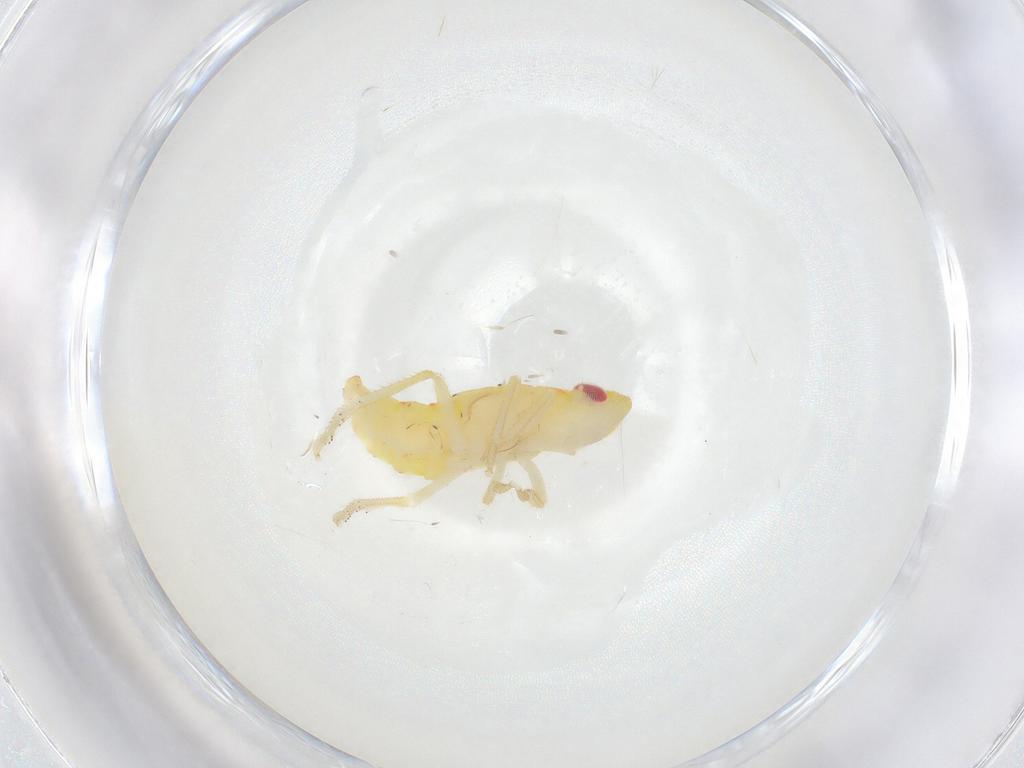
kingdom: Animalia
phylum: Arthropoda
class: Insecta
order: Hemiptera
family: Tropiduchidae
